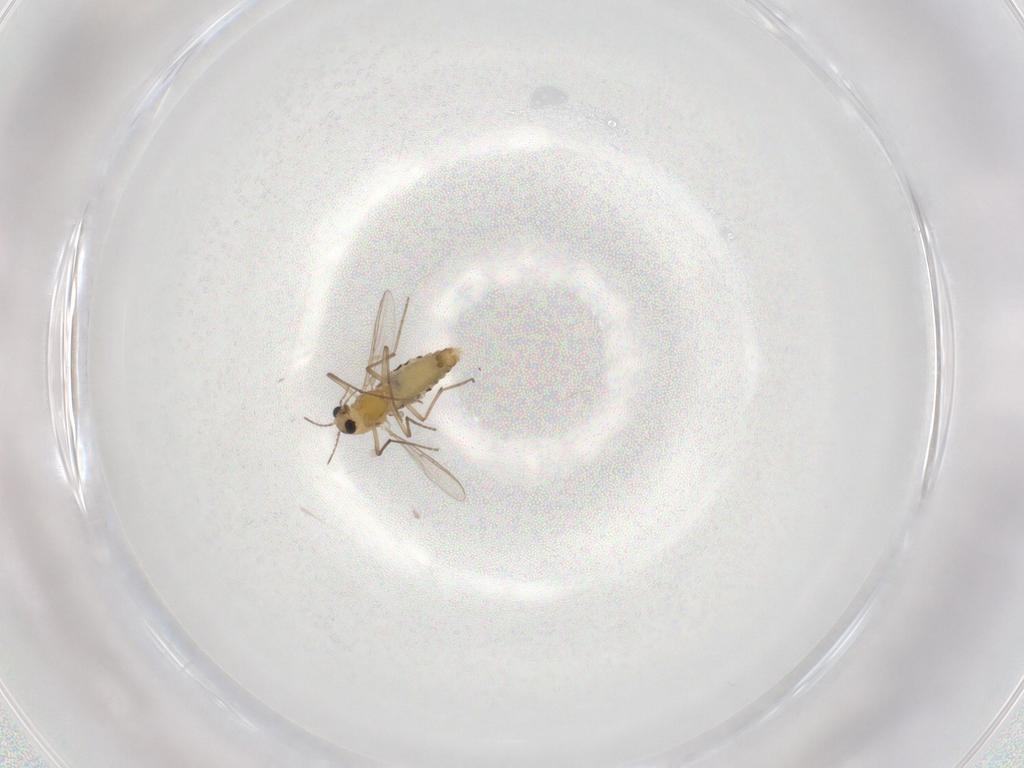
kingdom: Animalia
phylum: Arthropoda
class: Insecta
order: Diptera
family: Chironomidae
